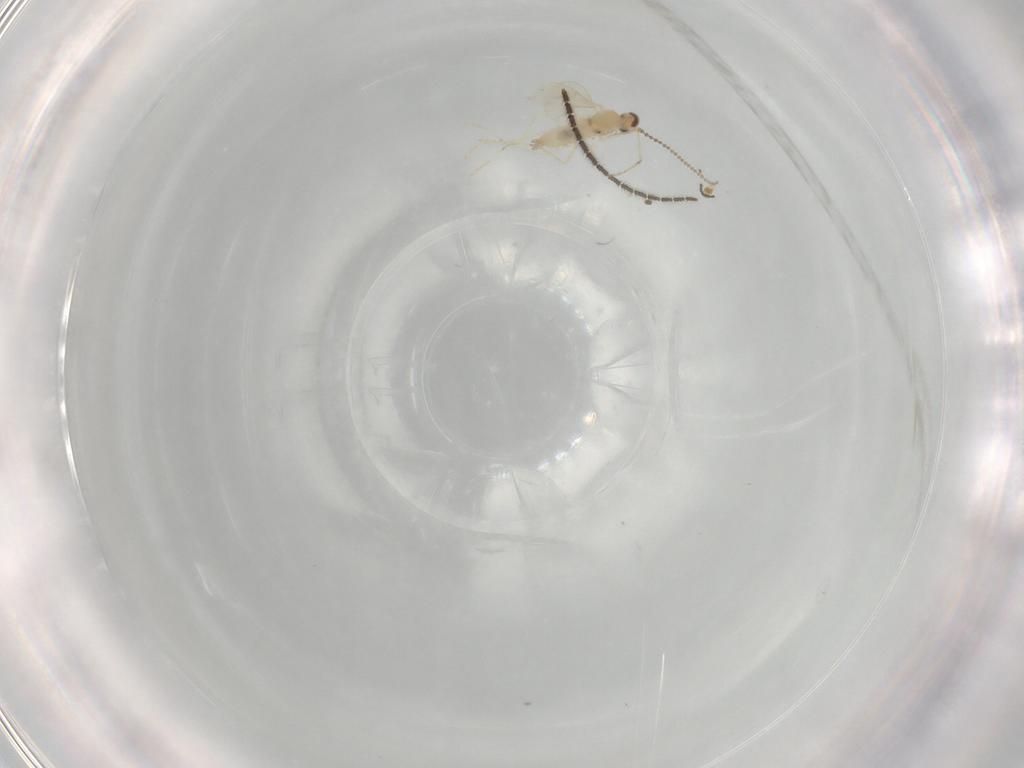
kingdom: Animalia
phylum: Arthropoda
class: Insecta
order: Diptera
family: Cecidomyiidae
